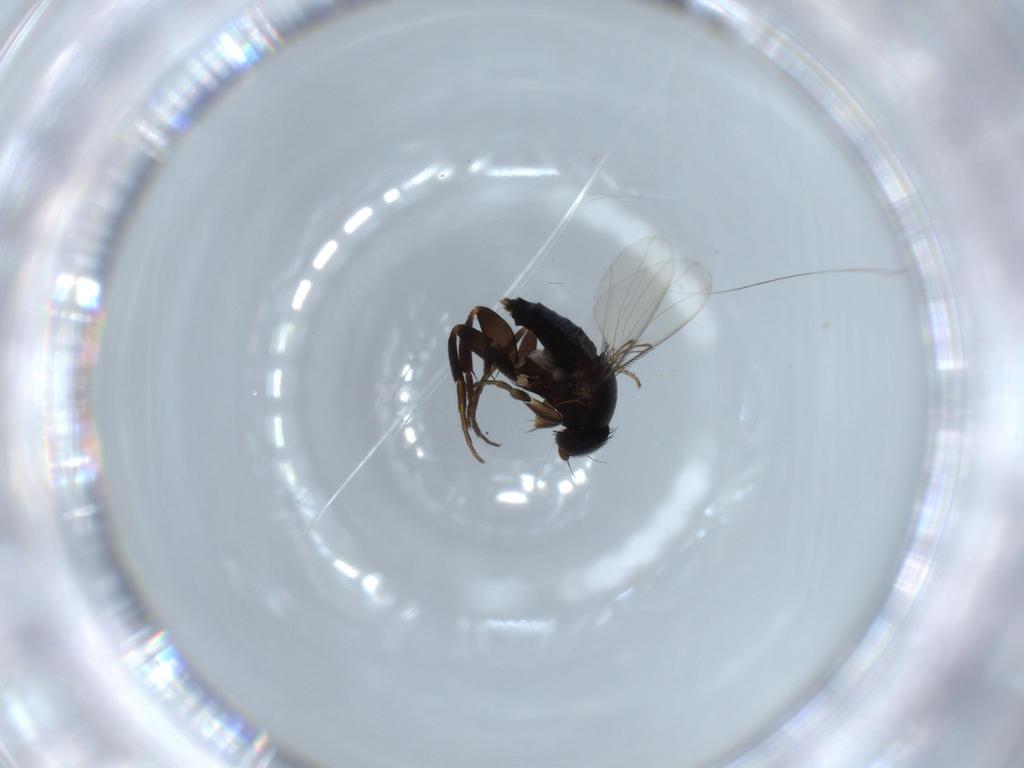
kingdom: Animalia
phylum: Arthropoda
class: Insecta
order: Diptera
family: Phoridae
